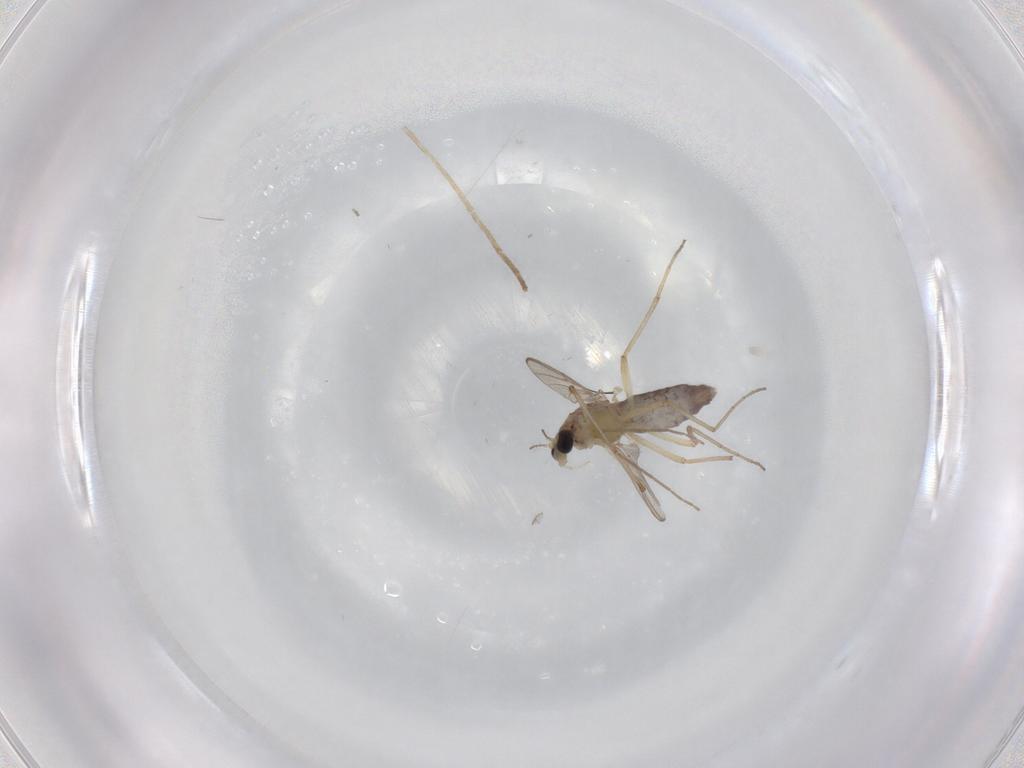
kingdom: Animalia
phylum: Arthropoda
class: Insecta
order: Diptera
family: Chironomidae
